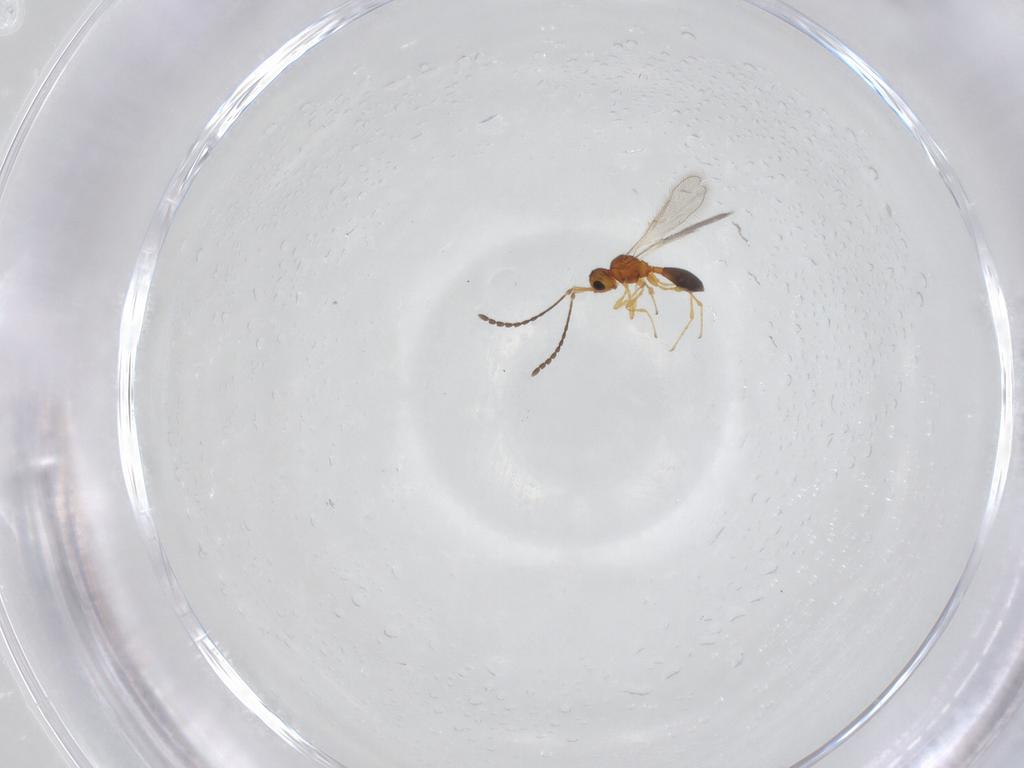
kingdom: Animalia
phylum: Arthropoda
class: Insecta
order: Hymenoptera
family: Diapriidae
